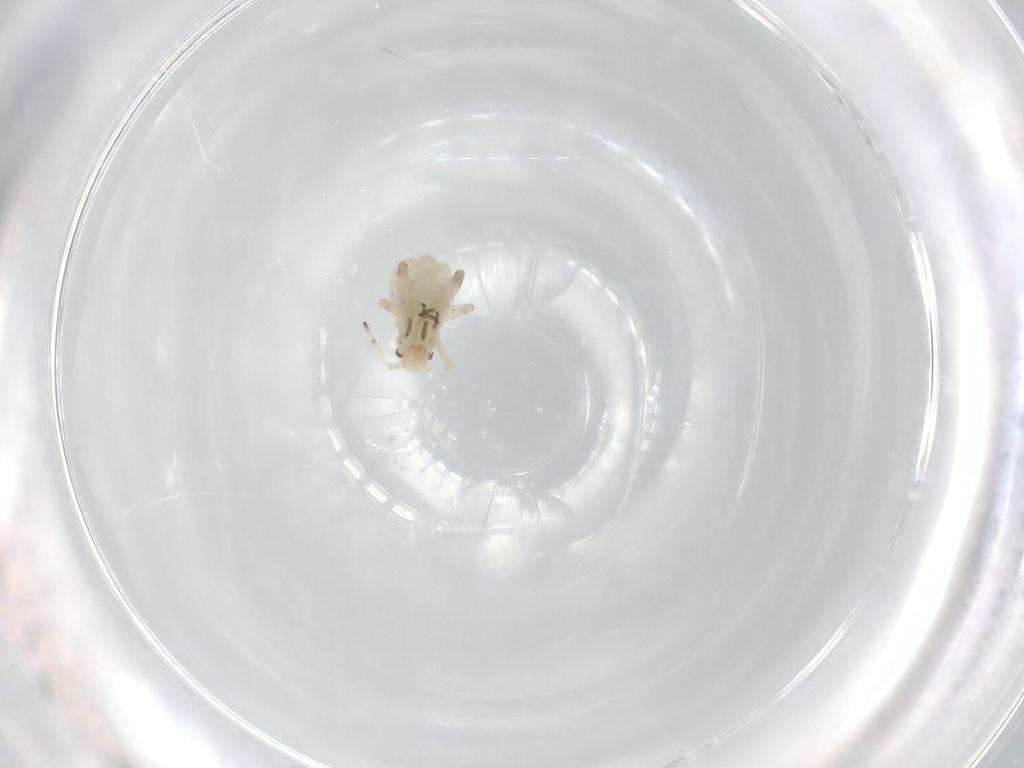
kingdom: Animalia
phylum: Arthropoda
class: Insecta
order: Hemiptera
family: Aphididae
